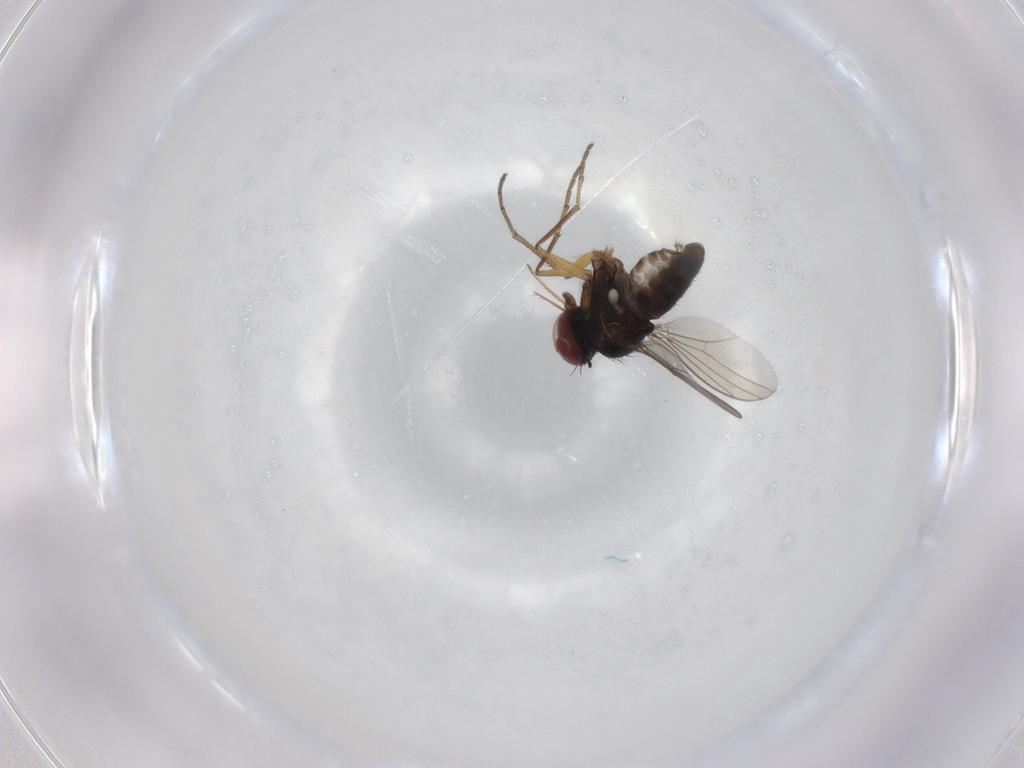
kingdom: Animalia
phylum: Arthropoda
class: Insecta
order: Diptera
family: Dolichopodidae
